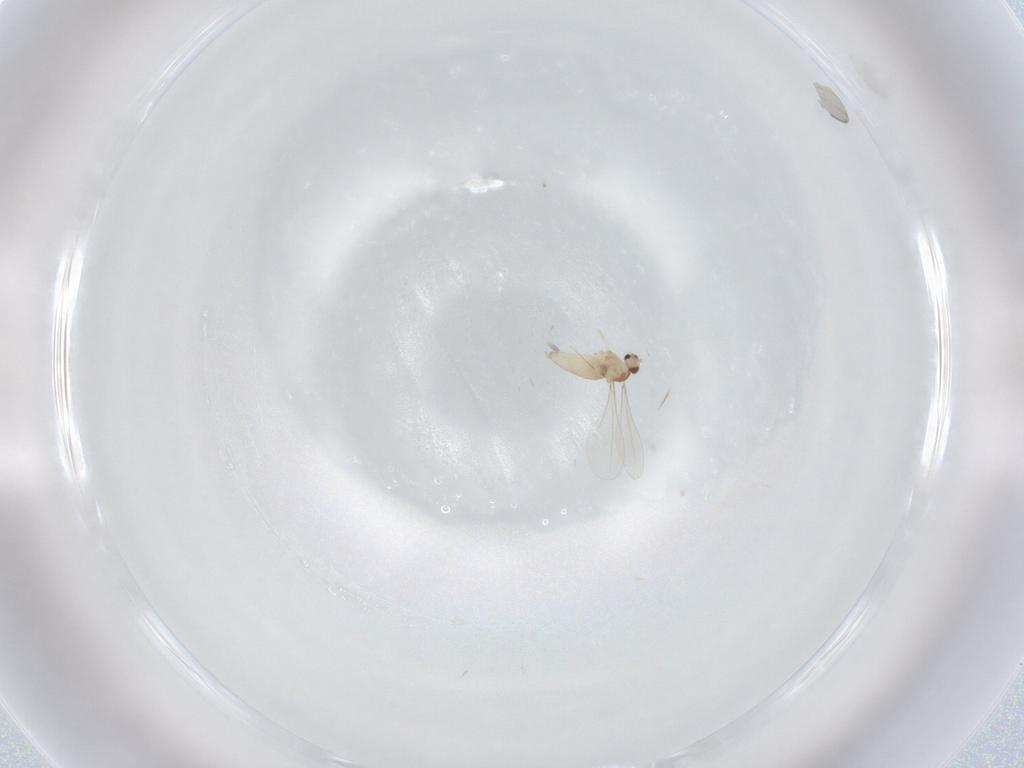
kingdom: Animalia
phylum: Arthropoda
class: Insecta
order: Diptera
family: Cecidomyiidae
